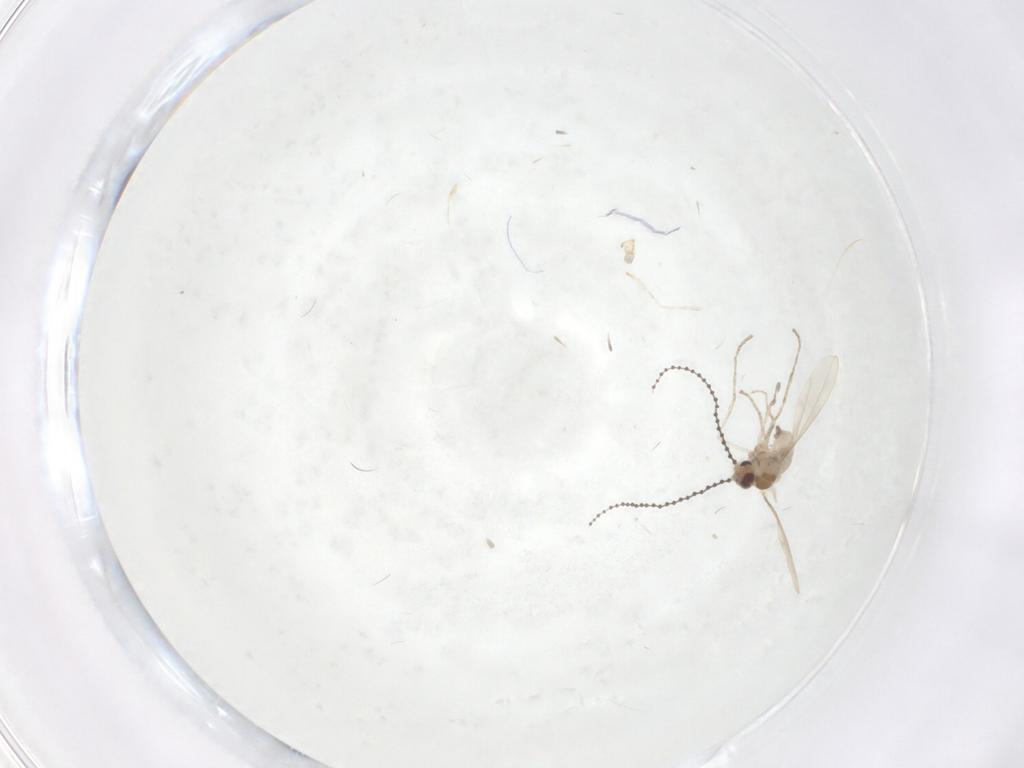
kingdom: Animalia
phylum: Arthropoda
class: Insecta
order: Diptera
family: Cecidomyiidae
